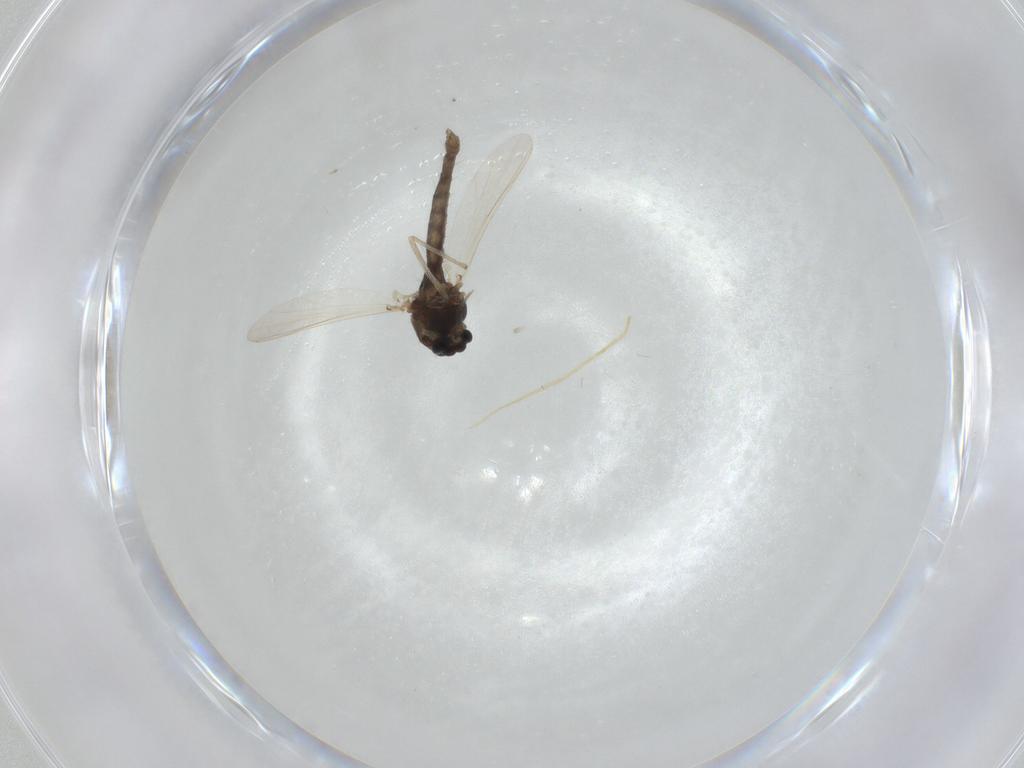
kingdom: Animalia
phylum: Arthropoda
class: Insecta
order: Diptera
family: Chironomidae
